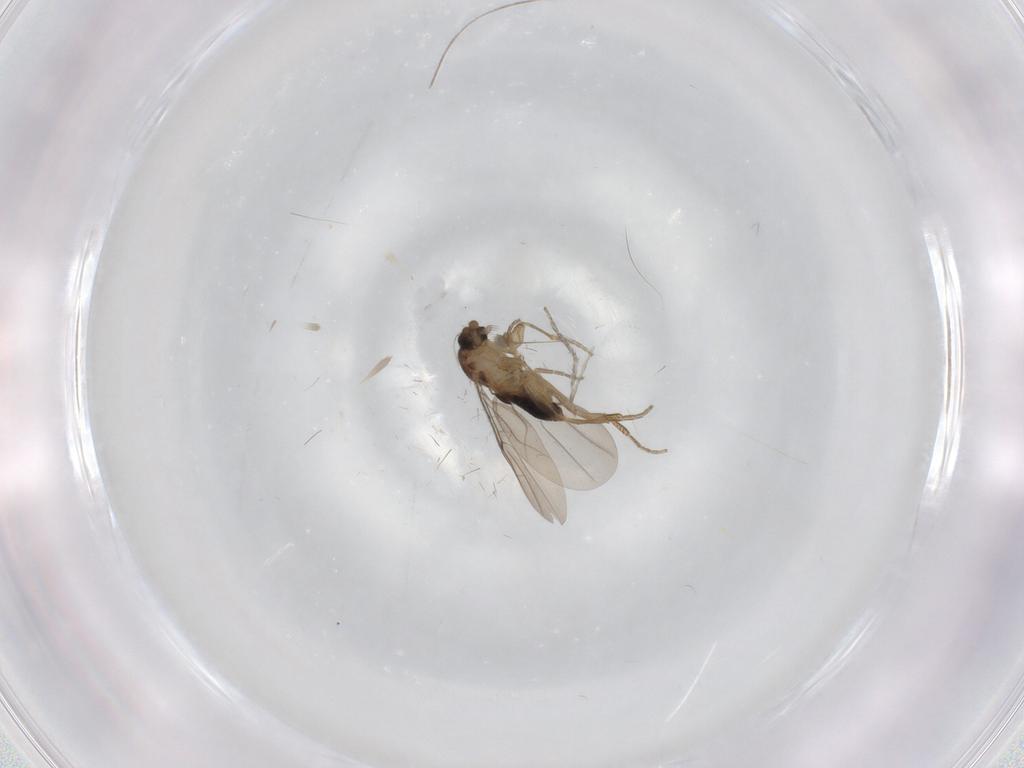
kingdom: Animalia
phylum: Arthropoda
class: Insecta
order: Diptera
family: Phoridae
